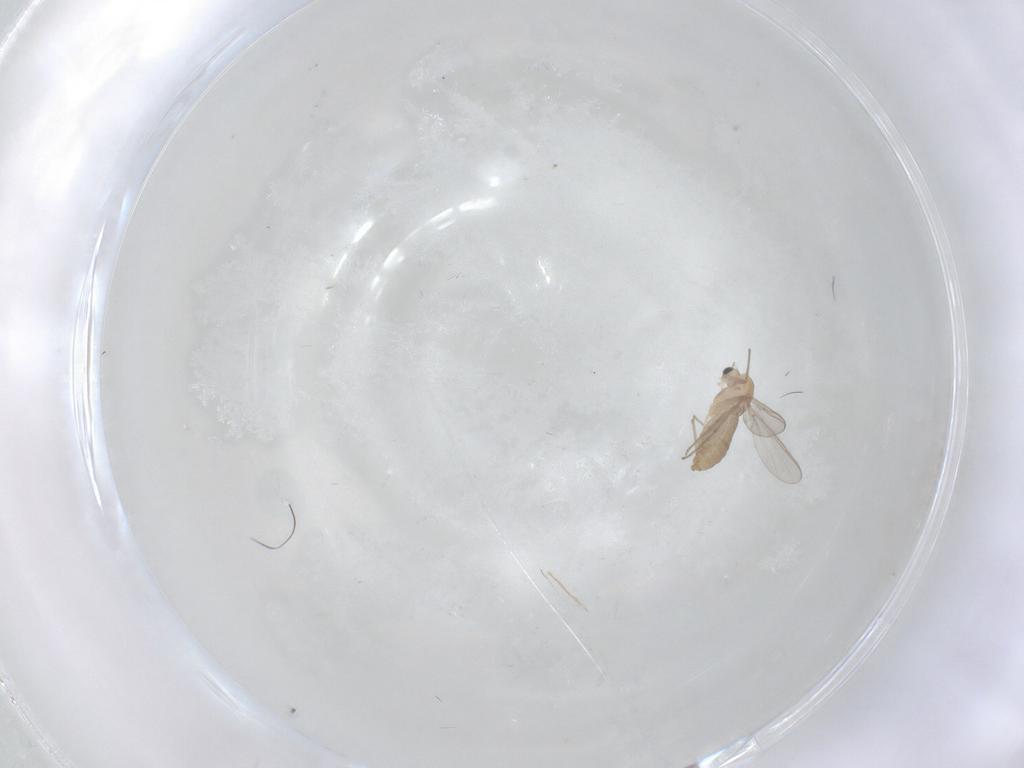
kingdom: Animalia
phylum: Arthropoda
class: Insecta
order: Diptera
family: Chironomidae
